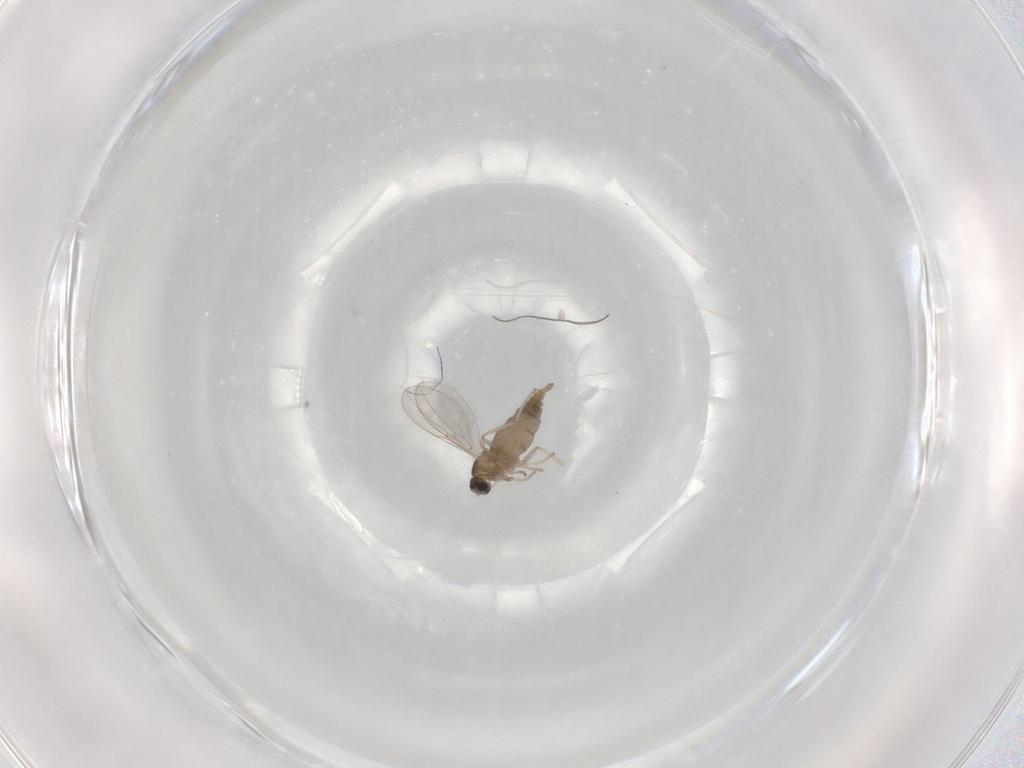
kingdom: Animalia
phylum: Arthropoda
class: Insecta
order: Diptera
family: Cecidomyiidae
